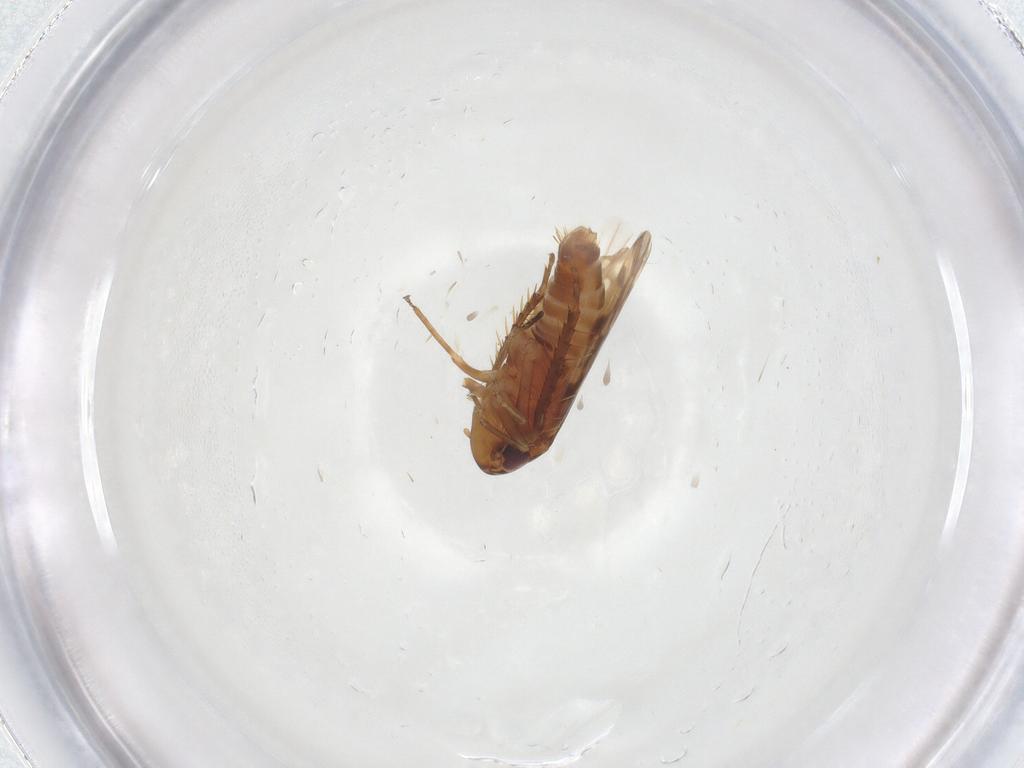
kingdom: Animalia
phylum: Arthropoda
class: Insecta
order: Hemiptera
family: Cicadellidae
